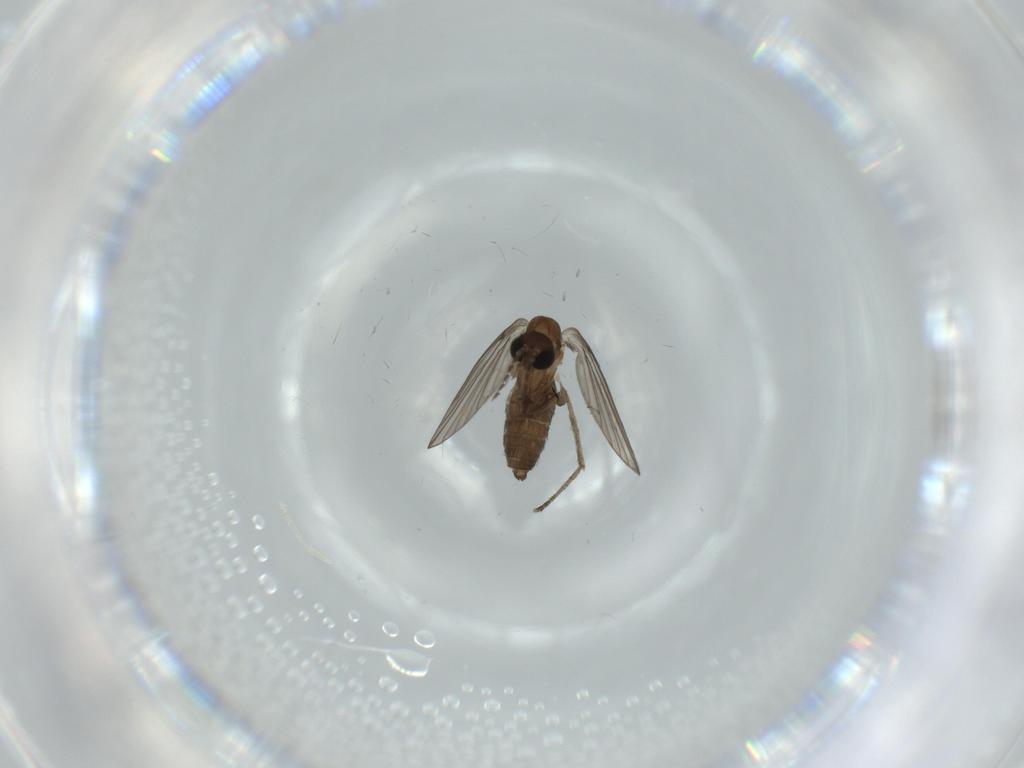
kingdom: Animalia
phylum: Arthropoda
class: Insecta
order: Diptera
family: Psychodidae
